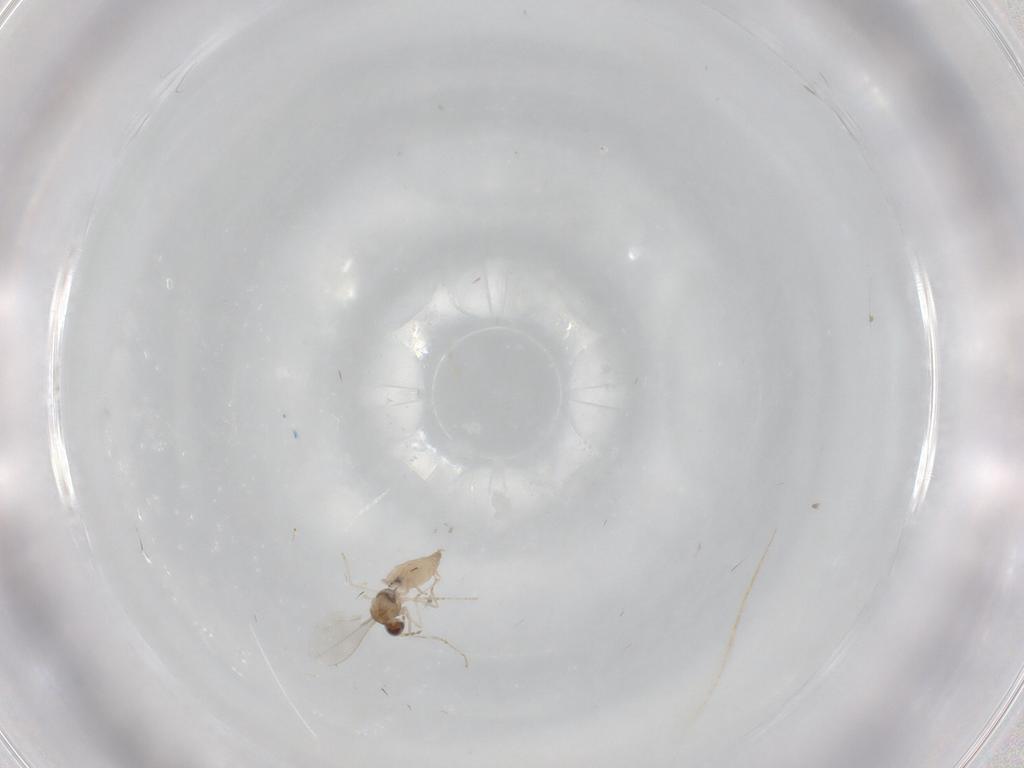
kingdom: Animalia
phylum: Arthropoda
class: Insecta
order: Diptera
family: Cecidomyiidae
